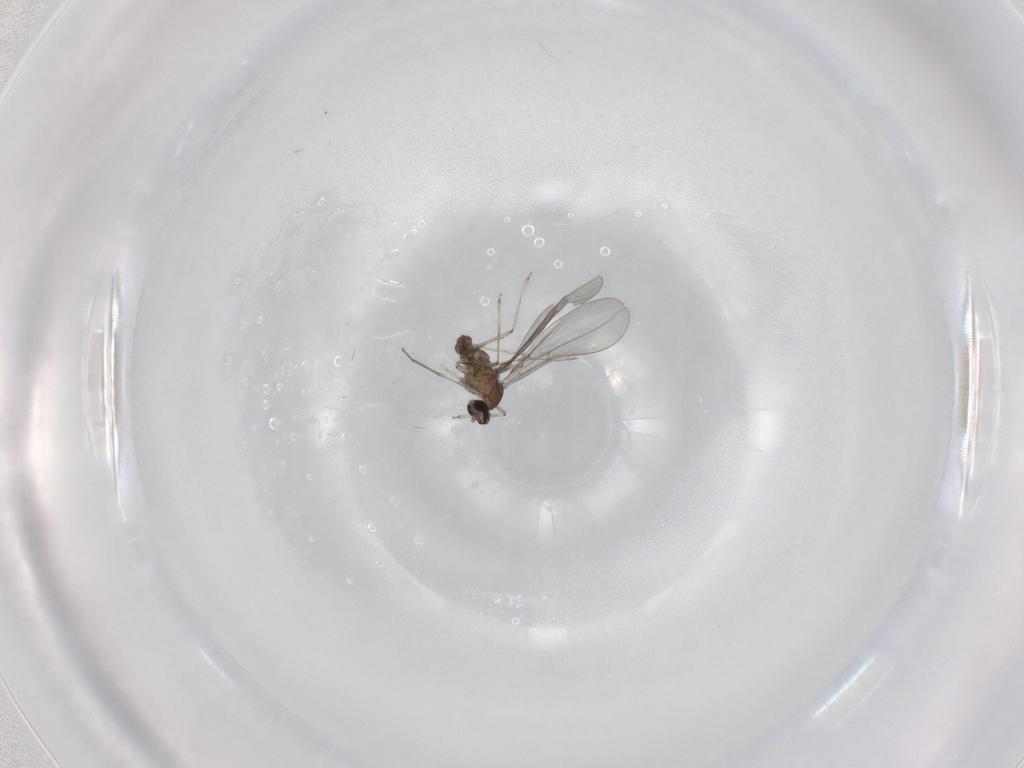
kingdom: Animalia
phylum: Arthropoda
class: Insecta
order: Diptera
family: Cecidomyiidae
